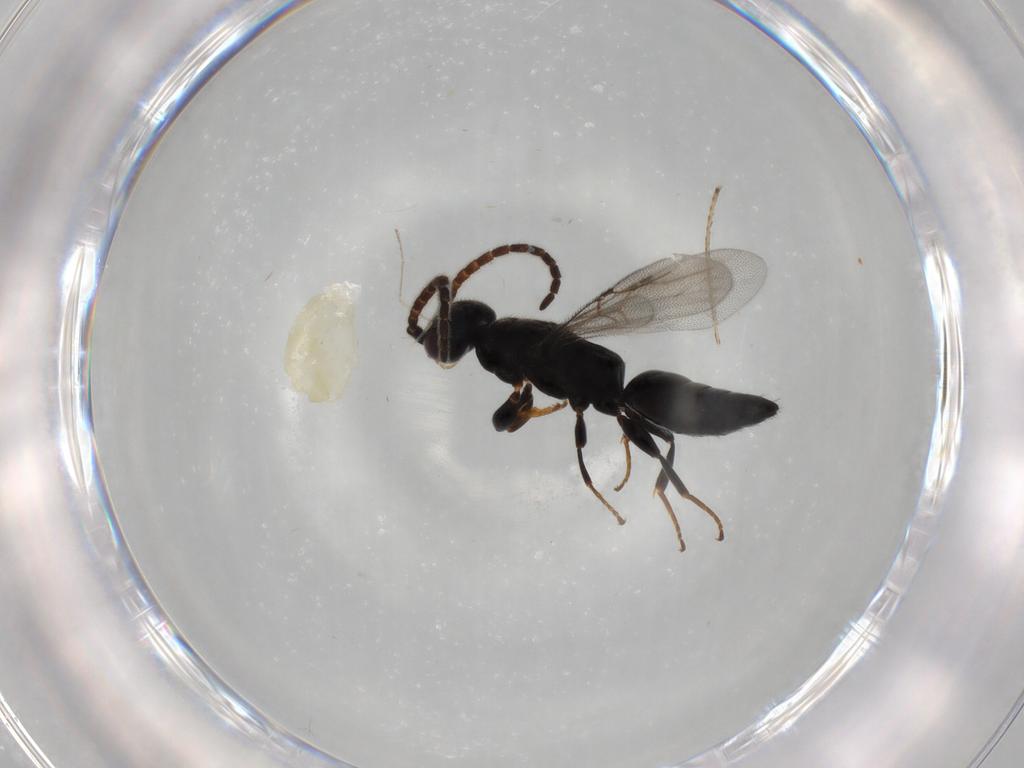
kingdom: Animalia
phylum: Arthropoda
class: Insecta
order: Hymenoptera
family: Bethylidae
